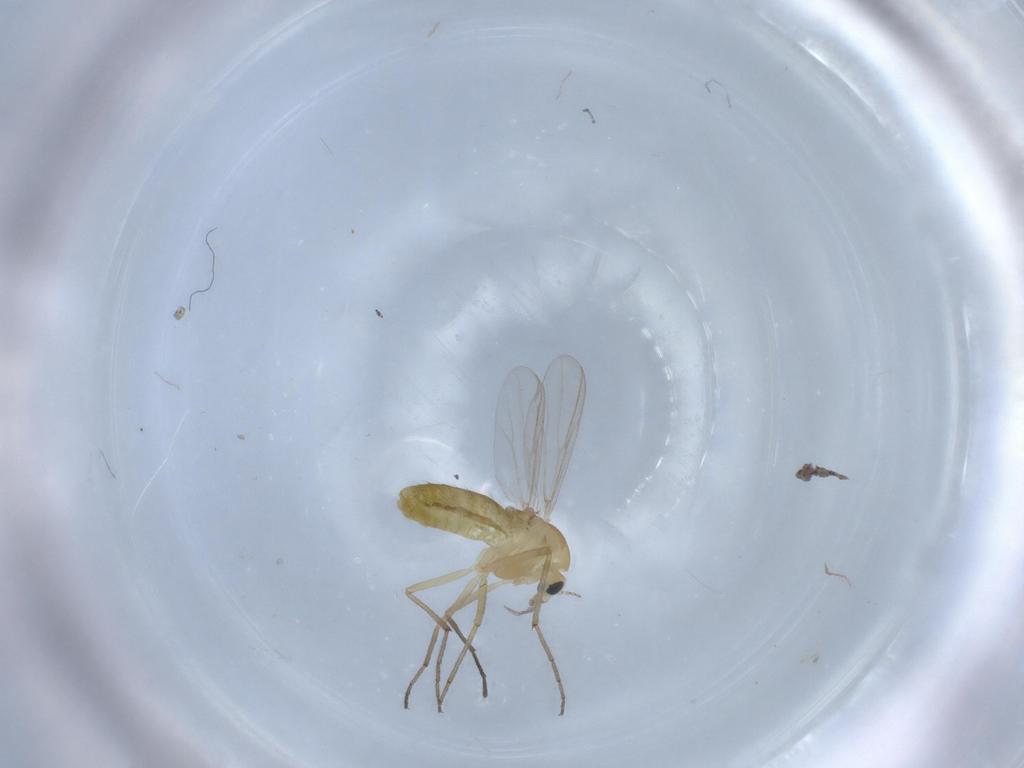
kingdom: Animalia
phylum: Arthropoda
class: Insecta
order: Diptera
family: Chironomidae
